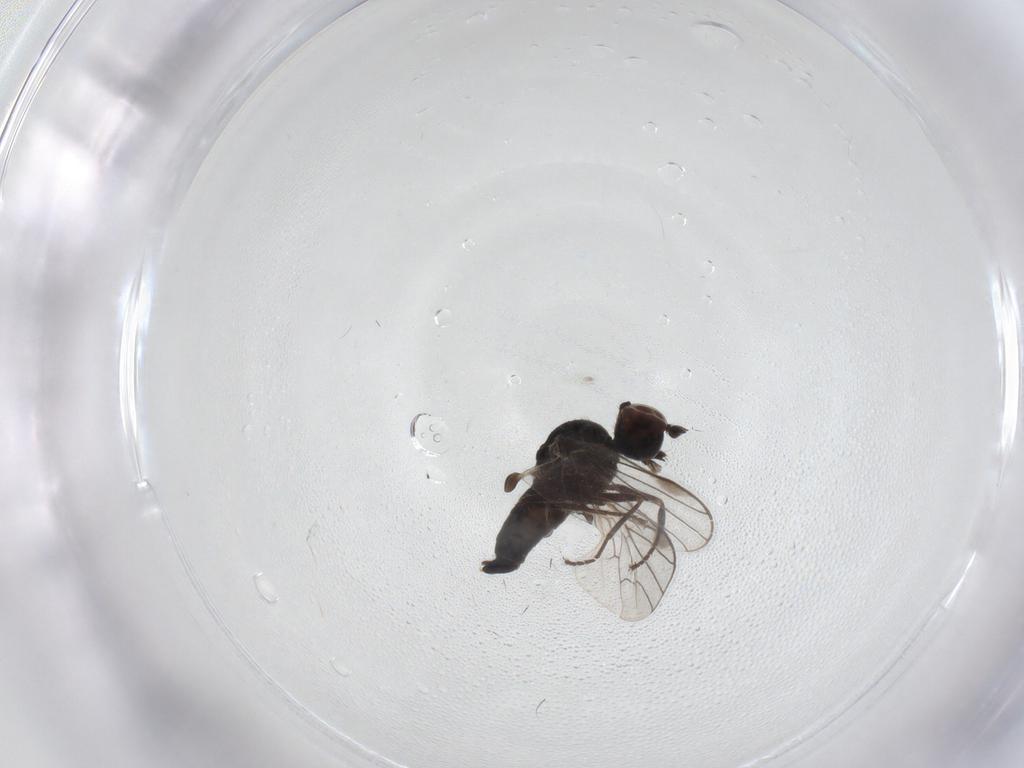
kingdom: Animalia
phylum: Arthropoda
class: Insecta
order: Diptera
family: Hybotidae
